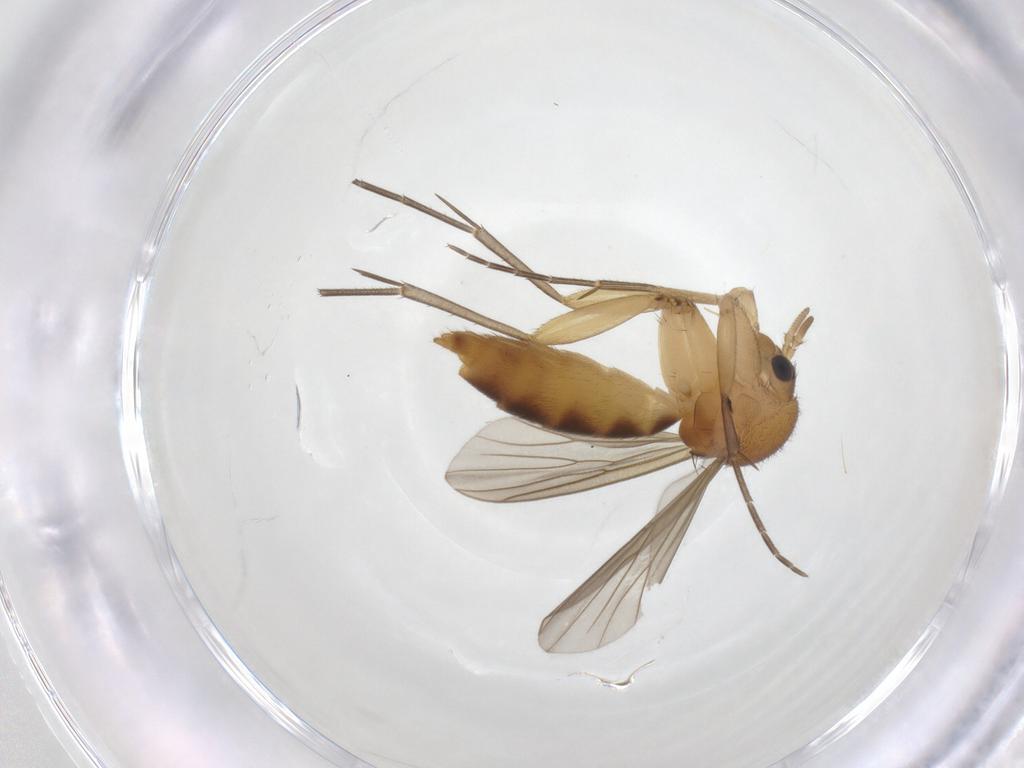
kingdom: Animalia
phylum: Arthropoda
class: Insecta
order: Diptera
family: Mycetophilidae
